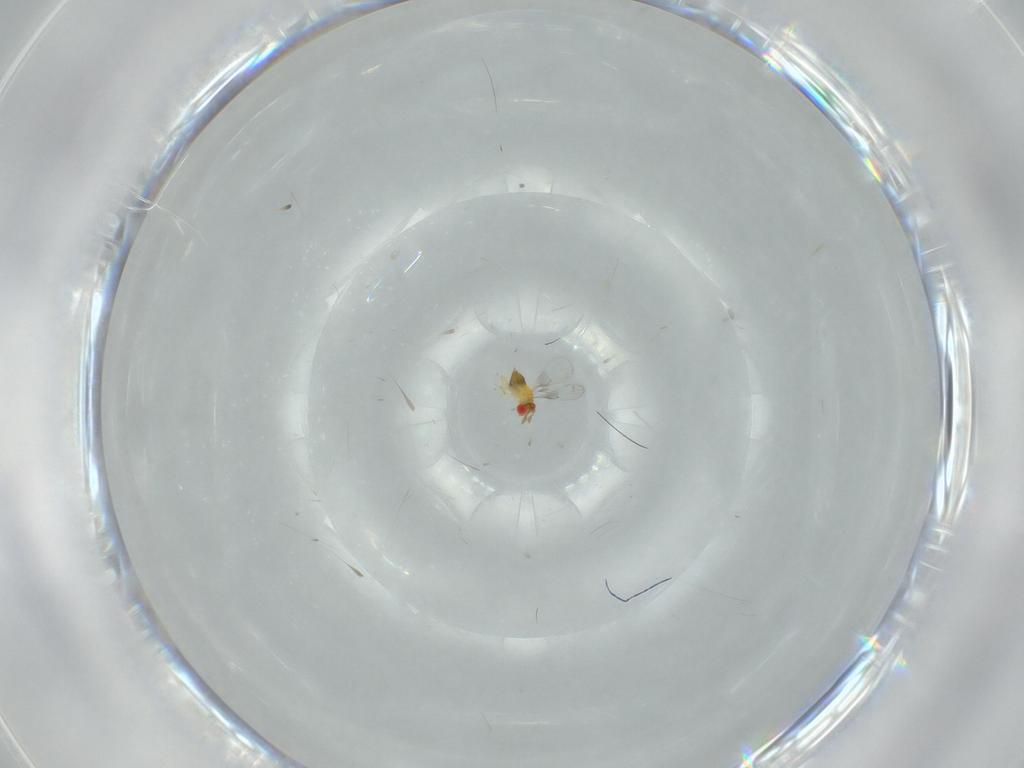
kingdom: Animalia
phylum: Arthropoda
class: Insecta
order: Hymenoptera
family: Trichogrammatidae
